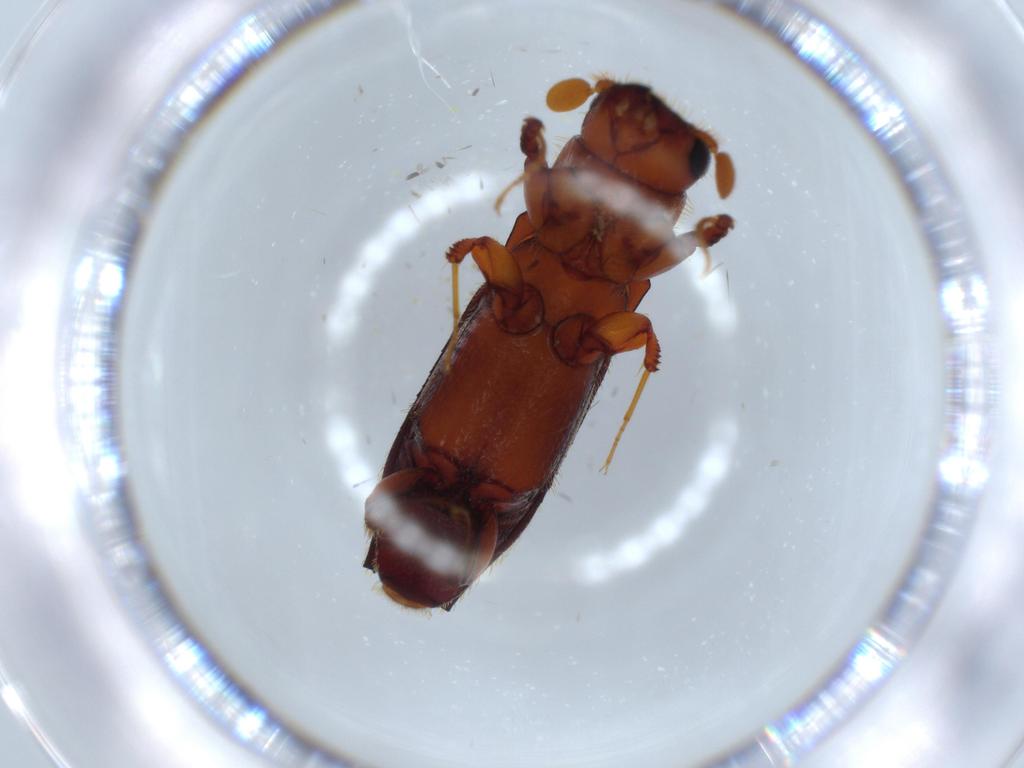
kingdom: Animalia
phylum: Arthropoda
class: Insecta
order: Coleoptera
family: Curculionidae
